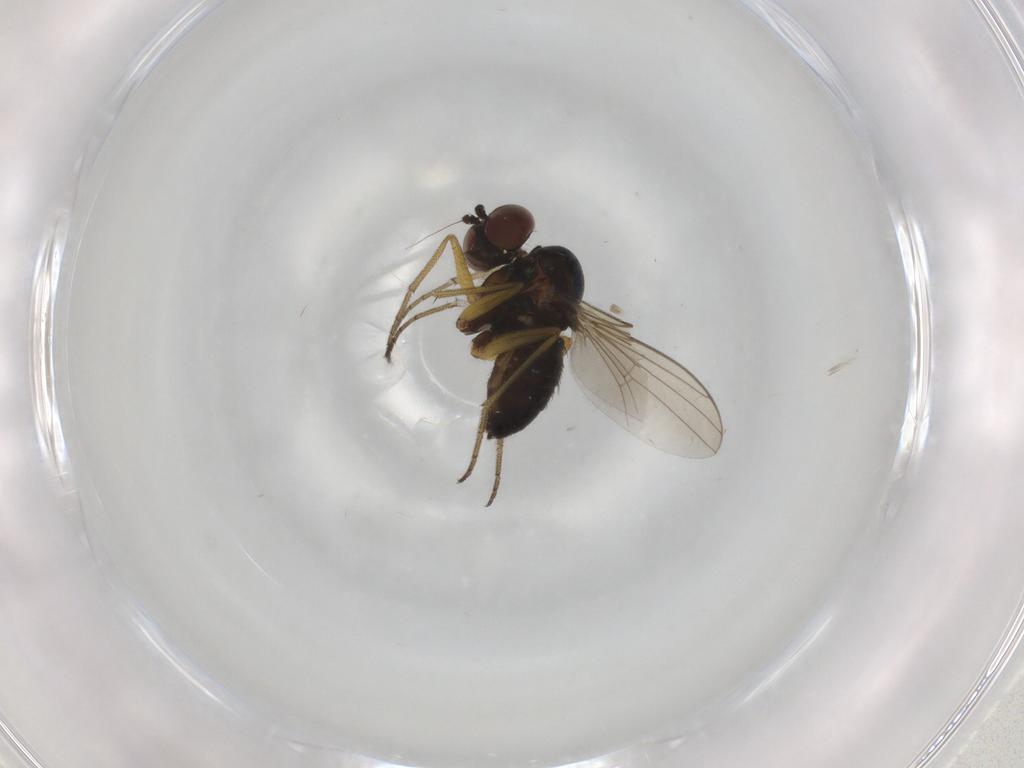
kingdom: Animalia
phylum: Arthropoda
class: Insecta
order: Diptera
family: Dolichopodidae
